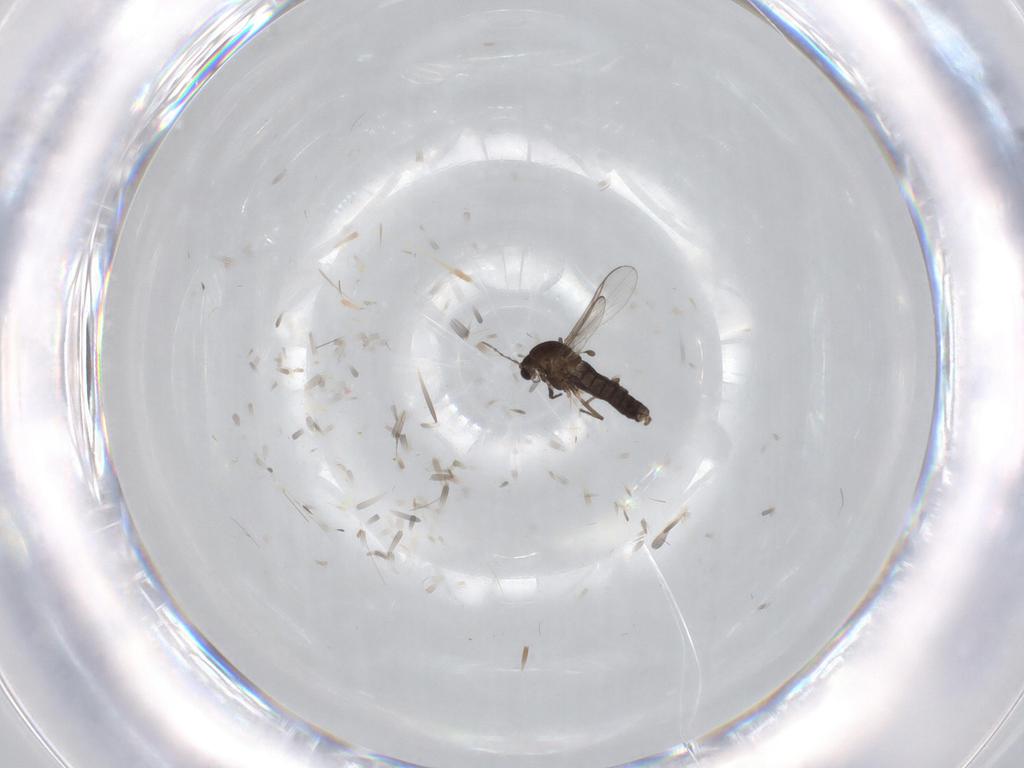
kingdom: Animalia
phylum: Arthropoda
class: Insecta
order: Diptera
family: Chironomidae
